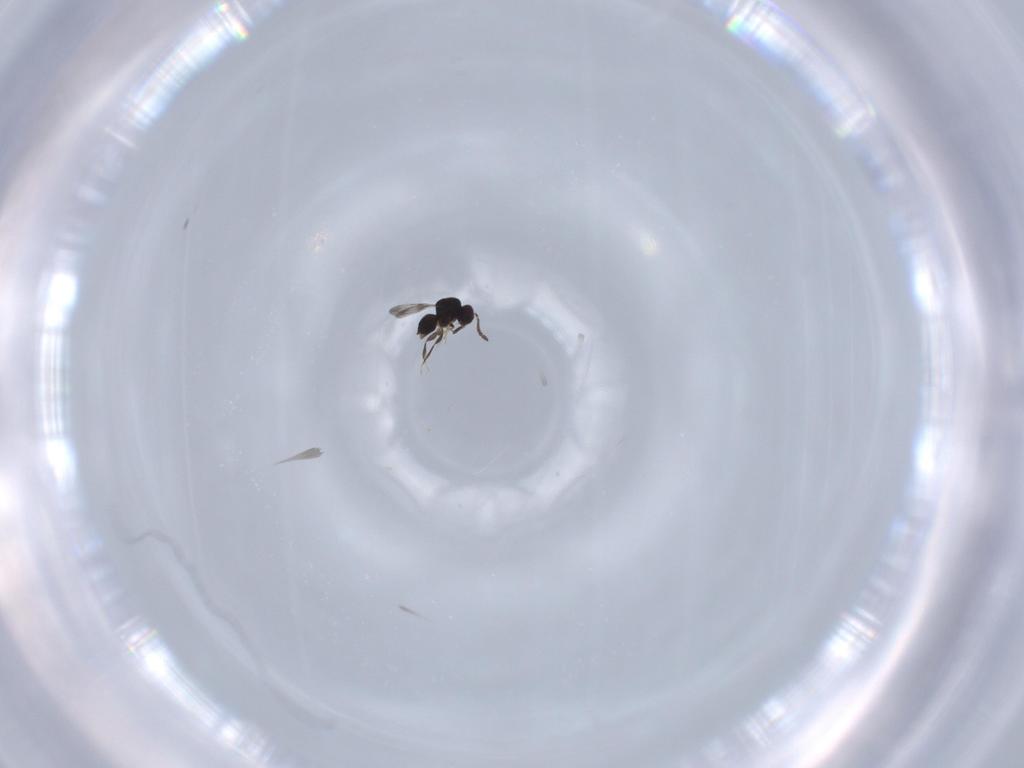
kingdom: Animalia
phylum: Arthropoda
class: Insecta
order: Hymenoptera
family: Ceraphronidae
